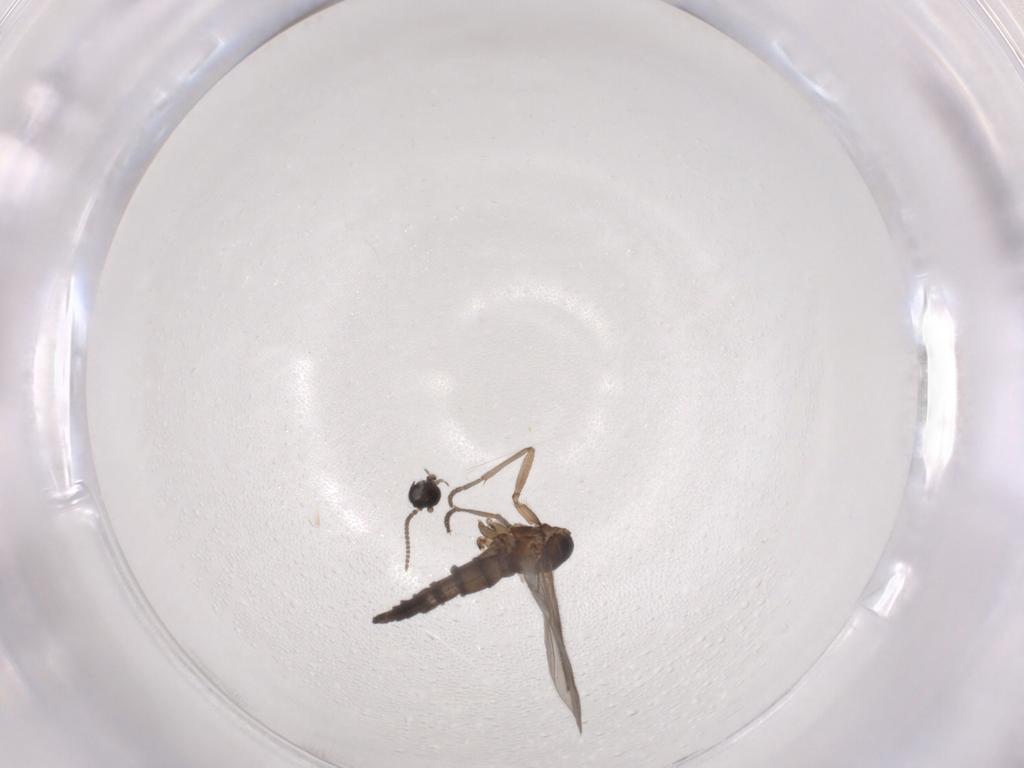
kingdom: Animalia
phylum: Arthropoda
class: Insecta
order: Diptera
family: Sciaridae
